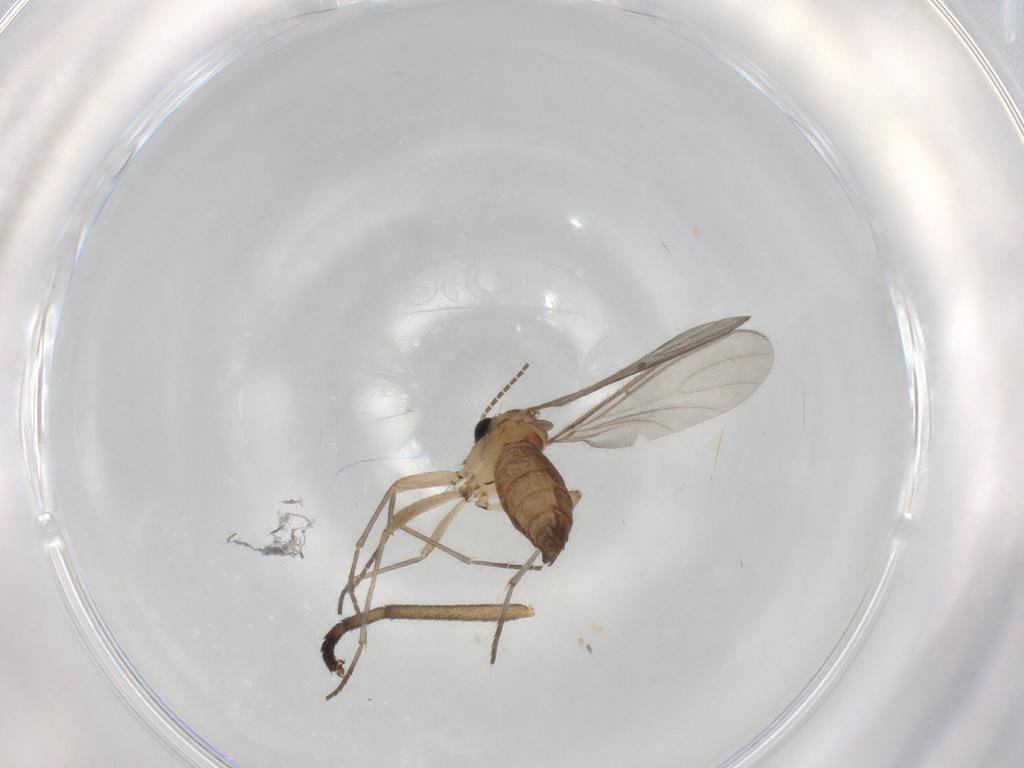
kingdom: Animalia
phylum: Arthropoda
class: Insecta
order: Diptera
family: Sciaridae
